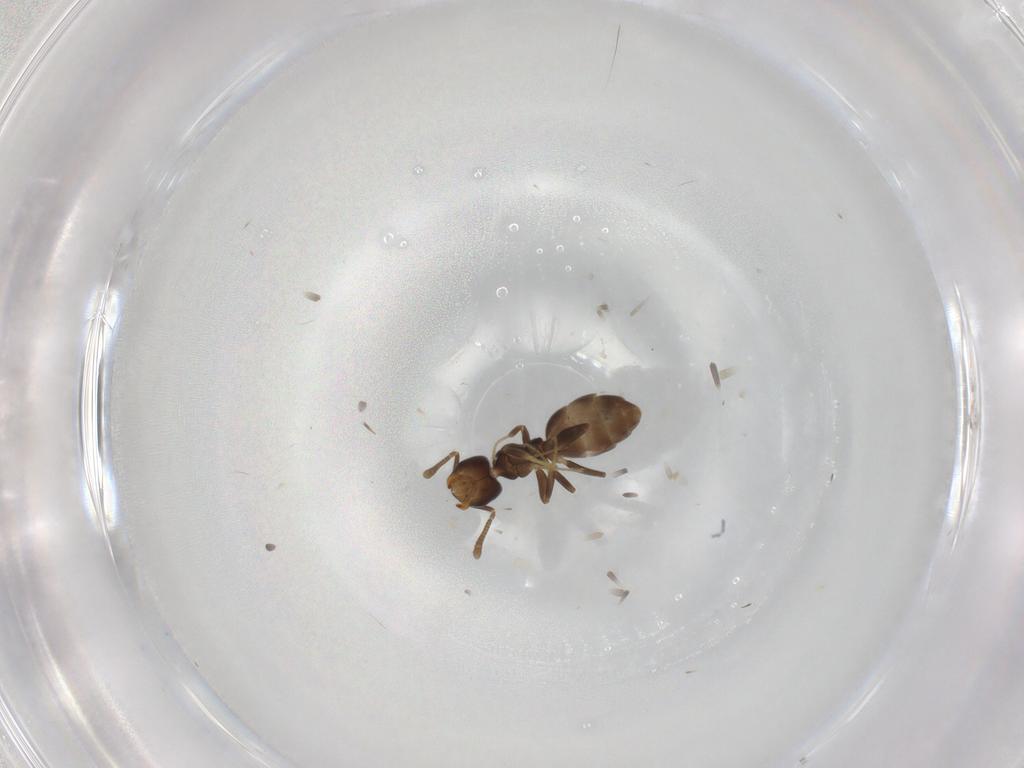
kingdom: Animalia
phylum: Arthropoda
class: Insecta
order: Hymenoptera
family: Formicidae
